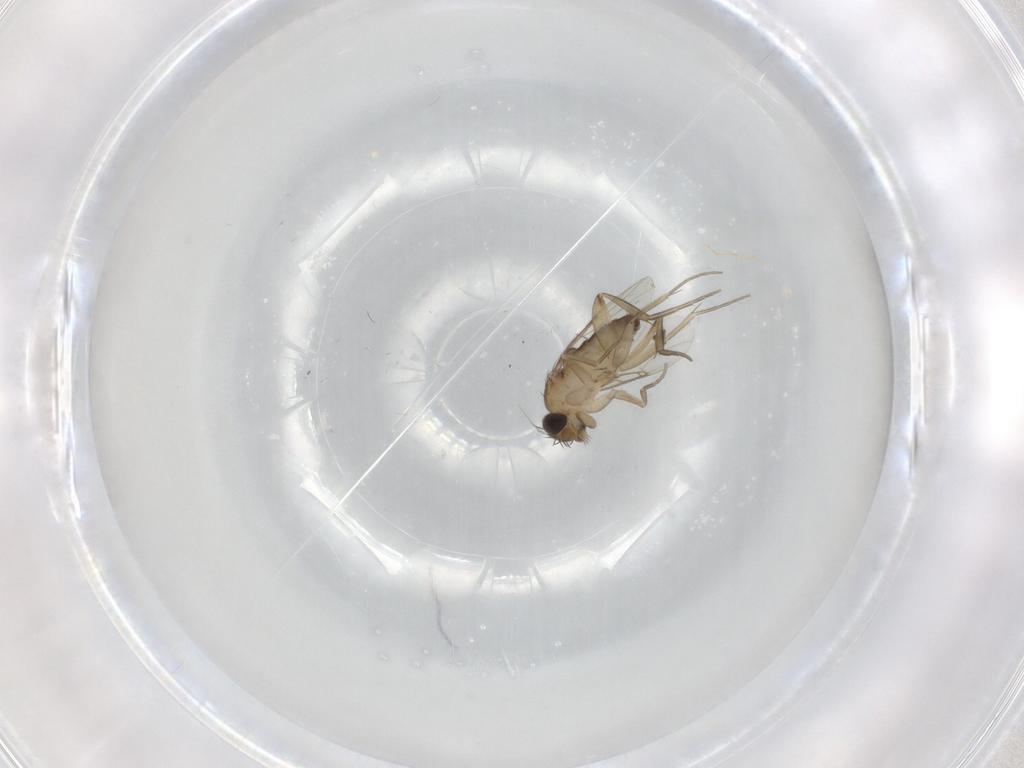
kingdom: Animalia
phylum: Arthropoda
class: Insecta
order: Diptera
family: Phoridae
